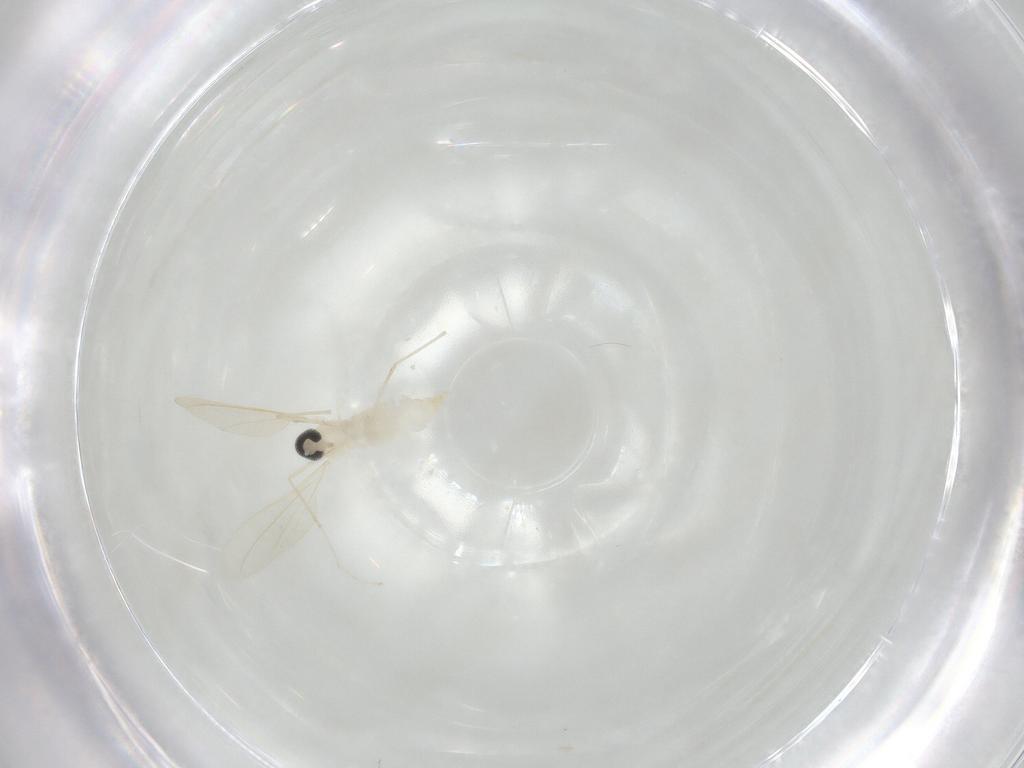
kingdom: Animalia
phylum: Arthropoda
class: Insecta
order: Diptera
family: Cecidomyiidae
